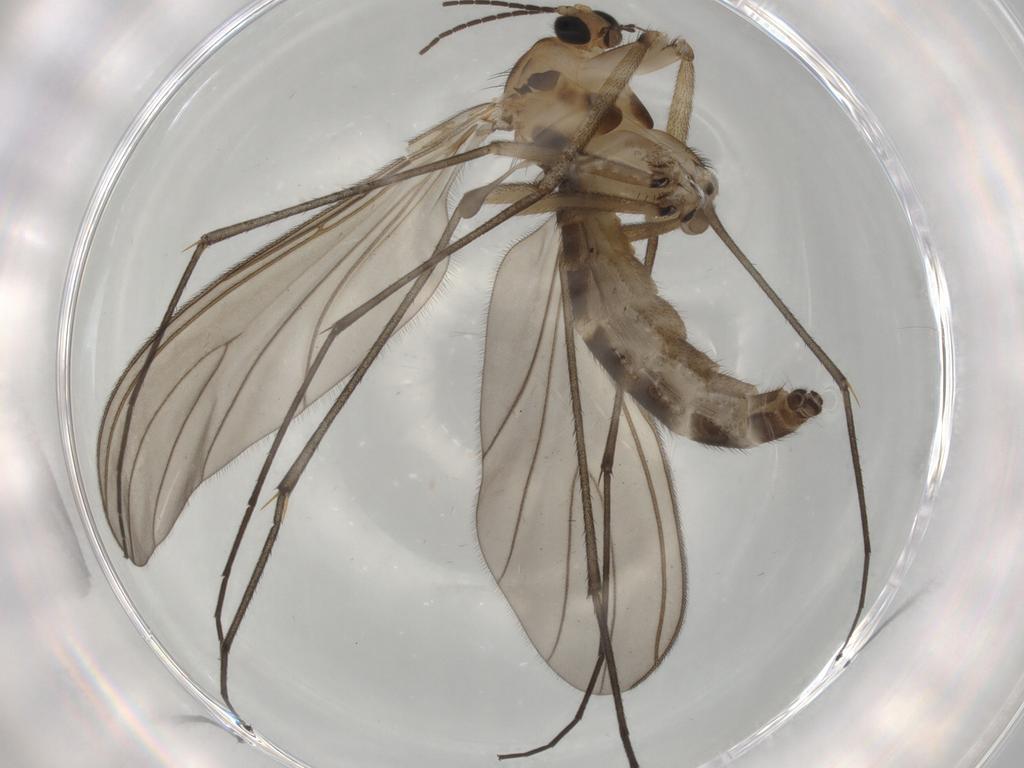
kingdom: Animalia
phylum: Arthropoda
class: Insecta
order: Diptera
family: Sciaridae
